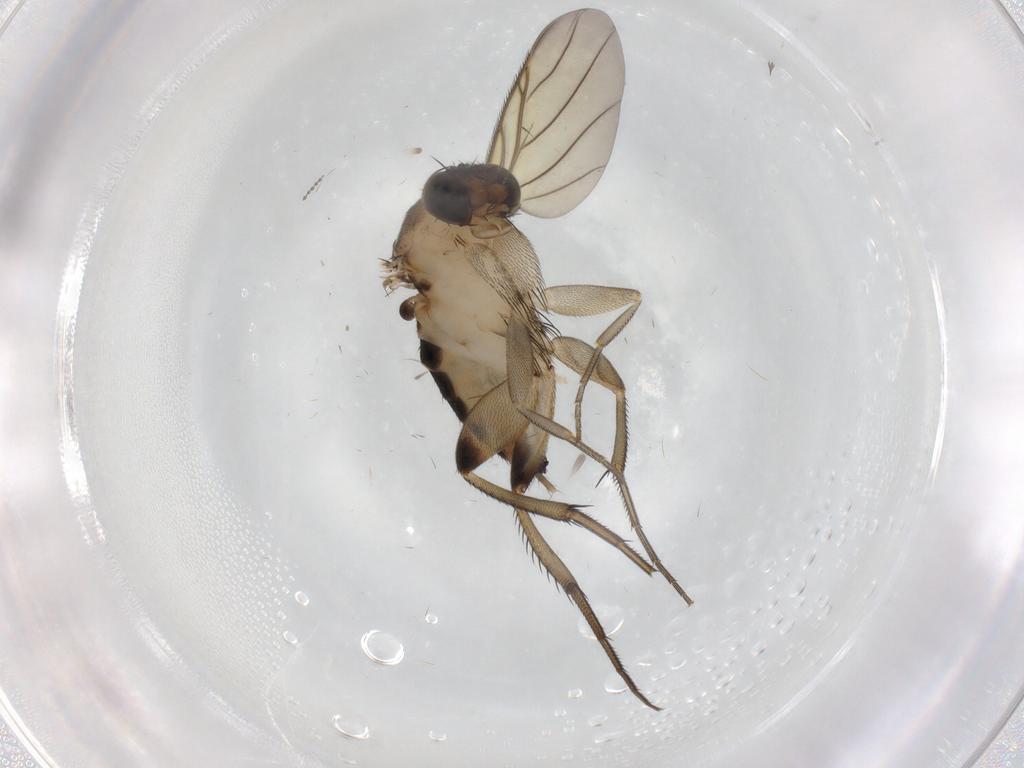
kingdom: Animalia
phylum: Arthropoda
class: Insecta
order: Diptera
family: Phoridae
